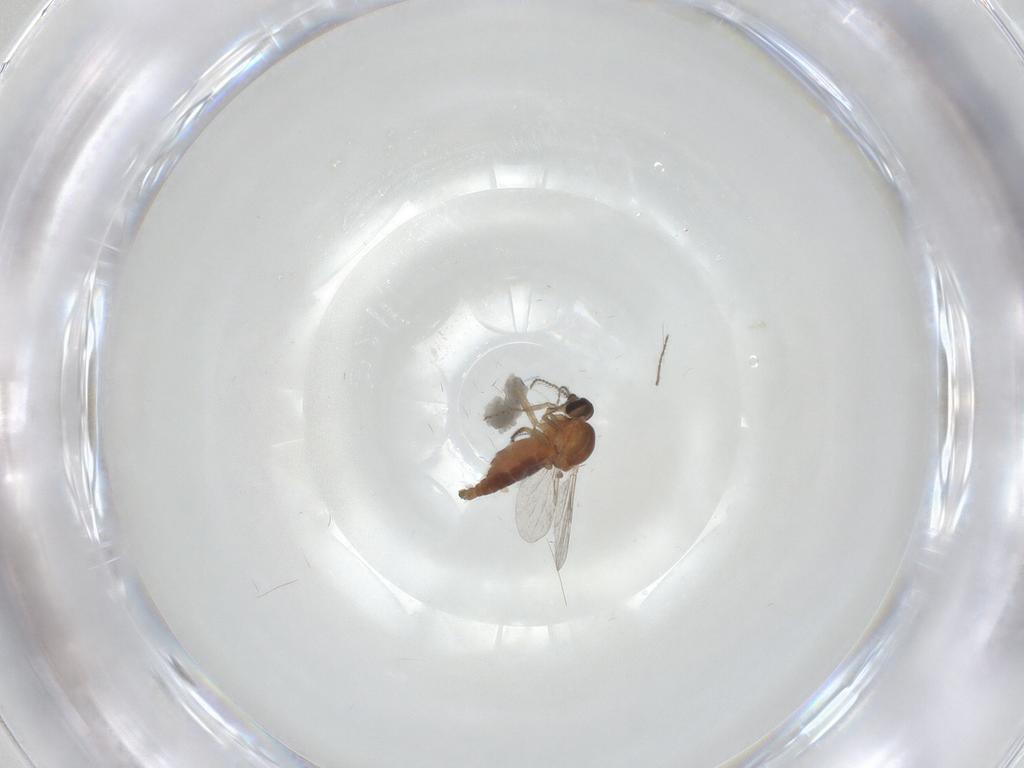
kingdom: Animalia
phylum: Arthropoda
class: Insecta
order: Diptera
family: Ceratopogonidae
